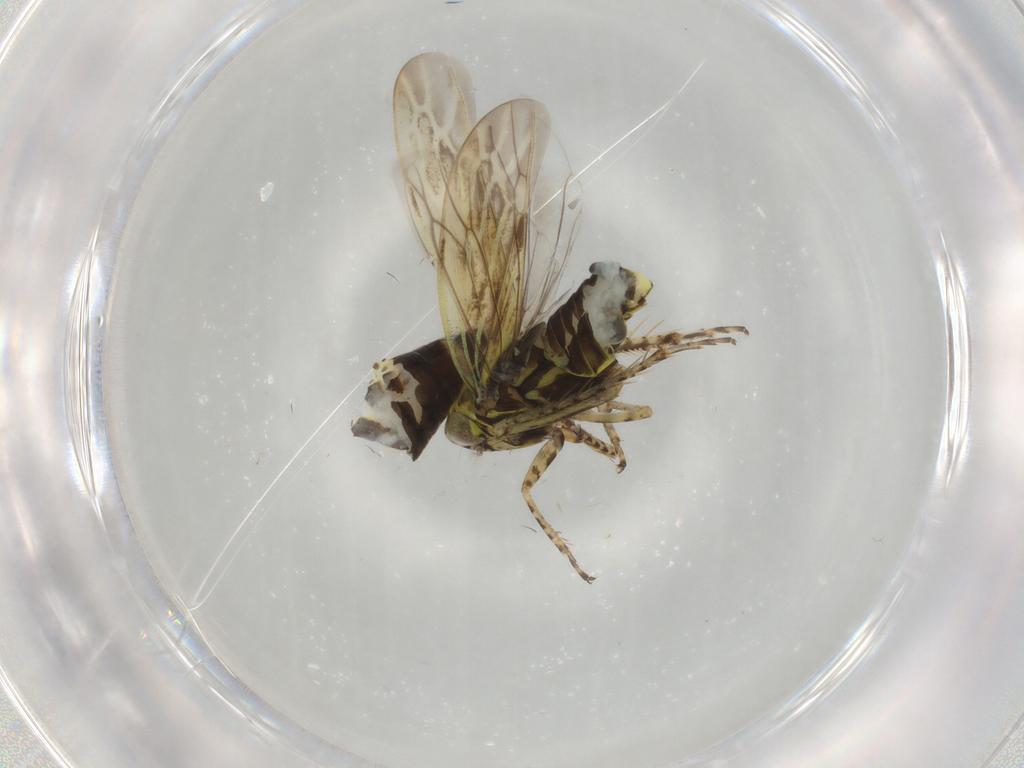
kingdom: Animalia
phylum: Arthropoda
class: Insecta
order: Hemiptera
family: Cicadellidae
